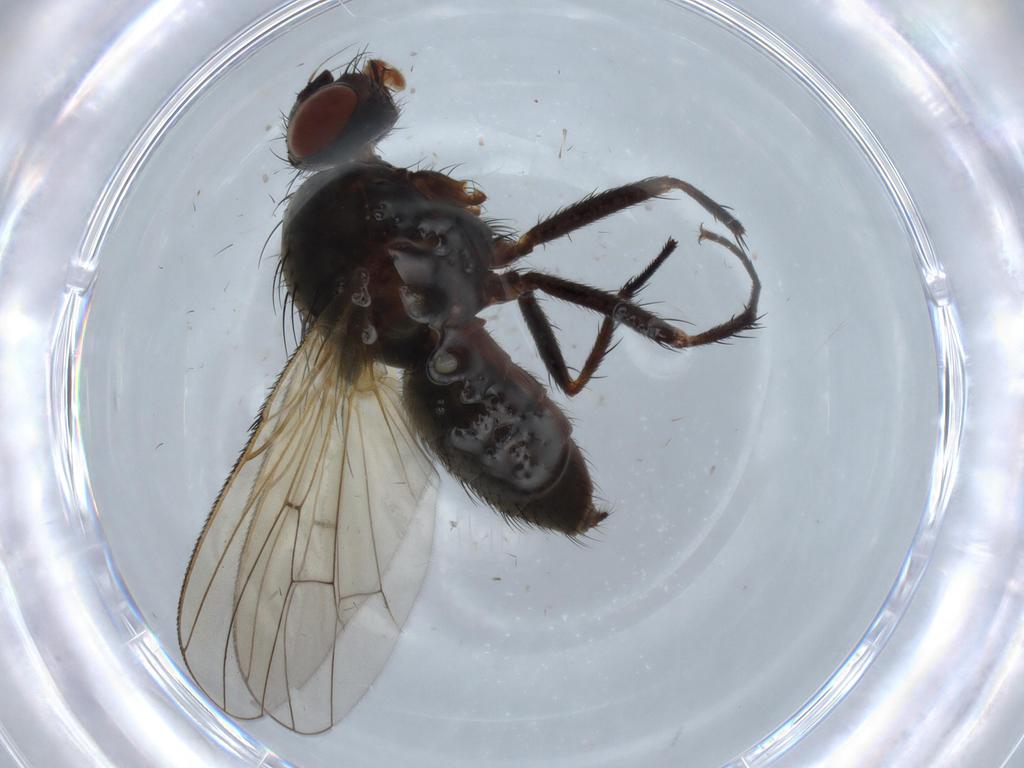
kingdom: Animalia
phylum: Arthropoda
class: Insecta
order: Diptera
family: Anthomyiidae
